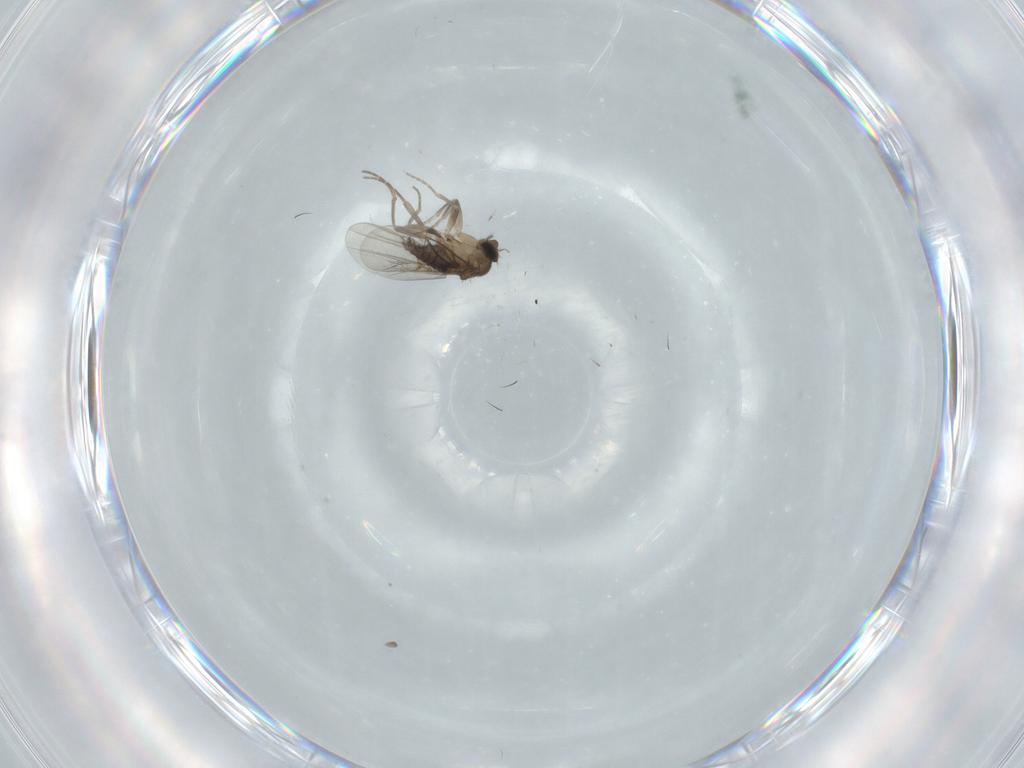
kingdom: Animalia
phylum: Arthropoda
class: Insecta
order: Diptera
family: Phoridae
